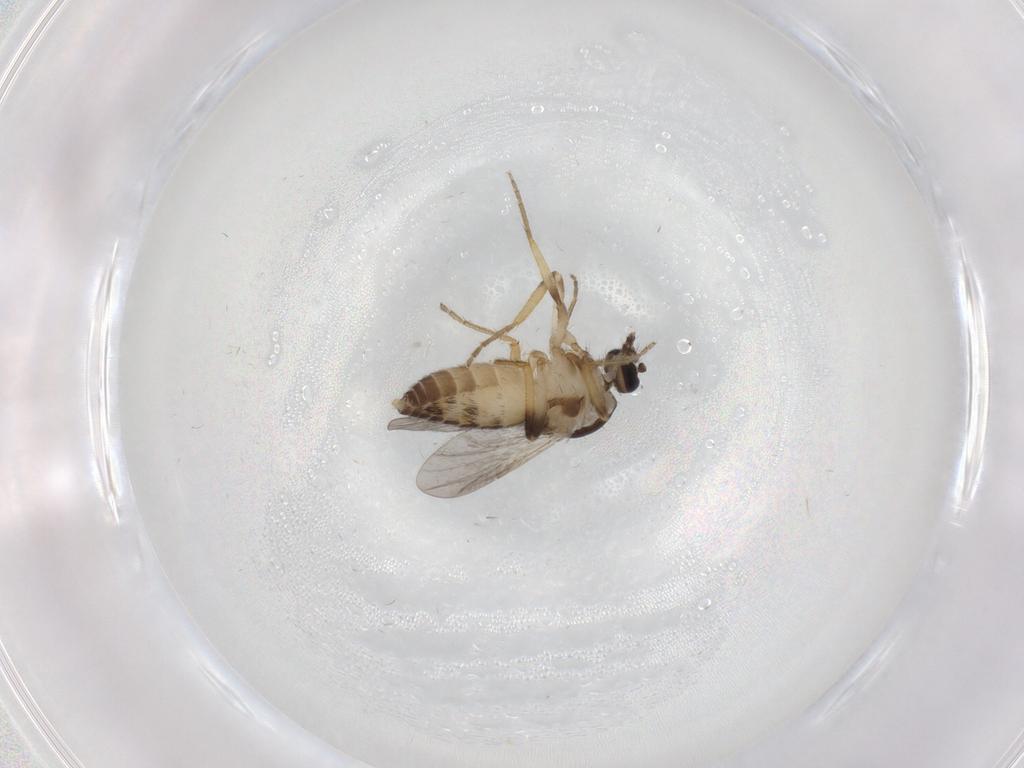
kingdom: Animalia
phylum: Arthropoda
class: Insecta
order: Diptera
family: Ceratopogonidae
